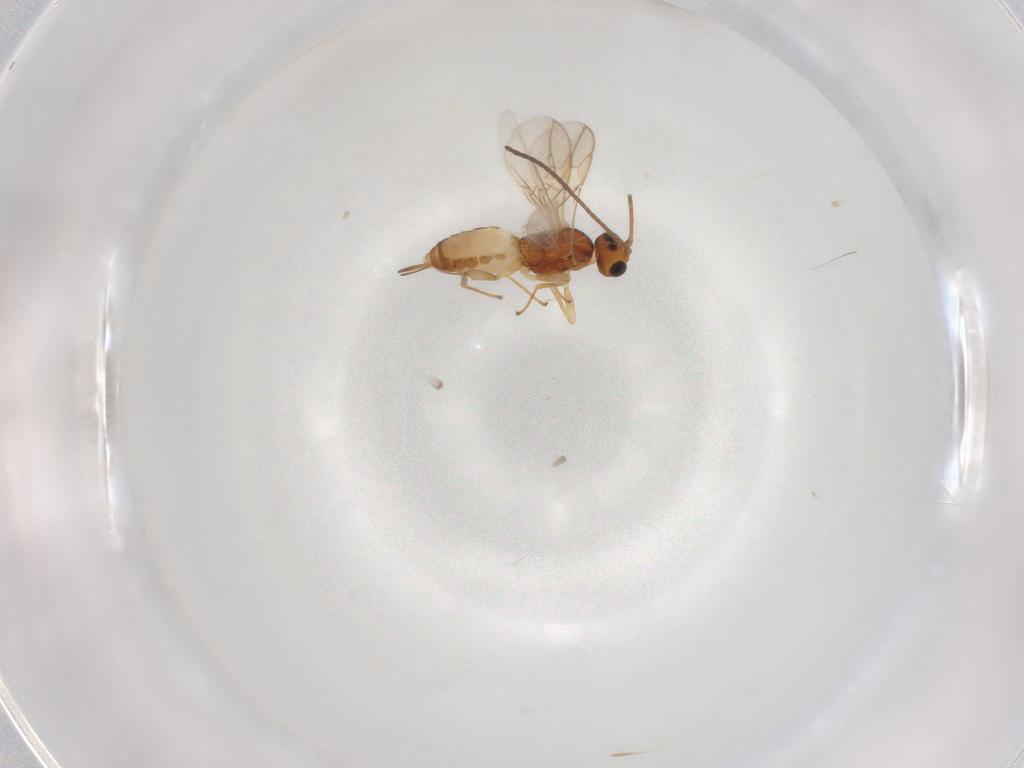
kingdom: Animalia
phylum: Arthropoda
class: Insecta
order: Hymenoptera
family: Braconidae
